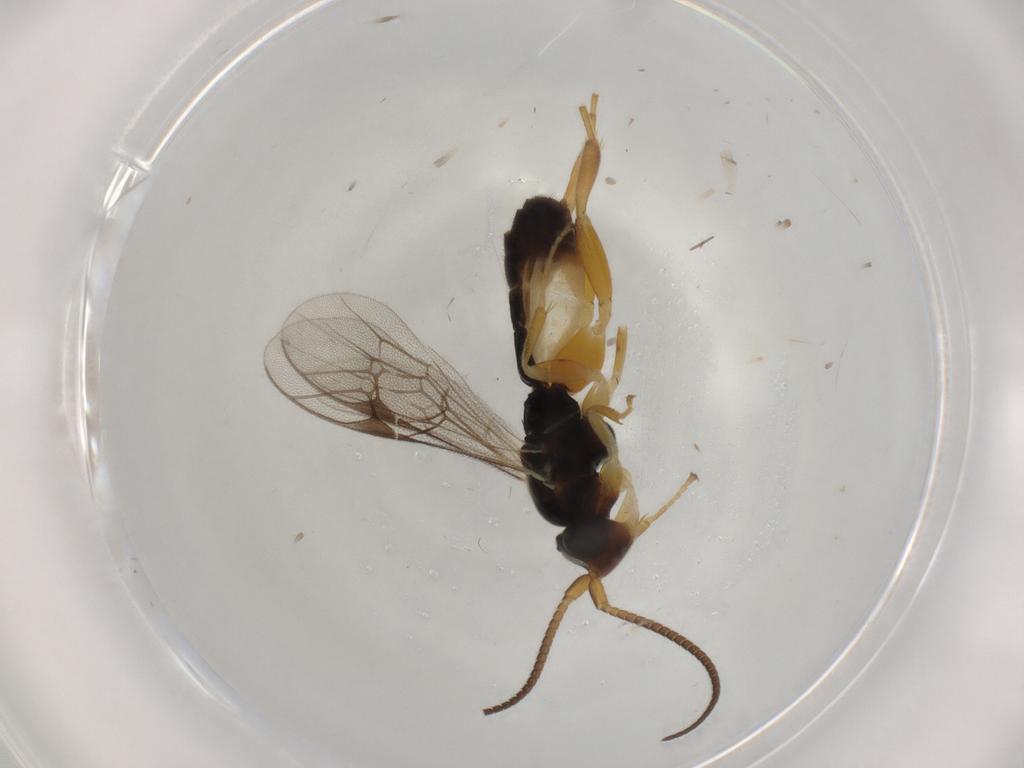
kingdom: Animalia
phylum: Arthropoda
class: Insecta
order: Hymenoptera
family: Ichneumonidae
